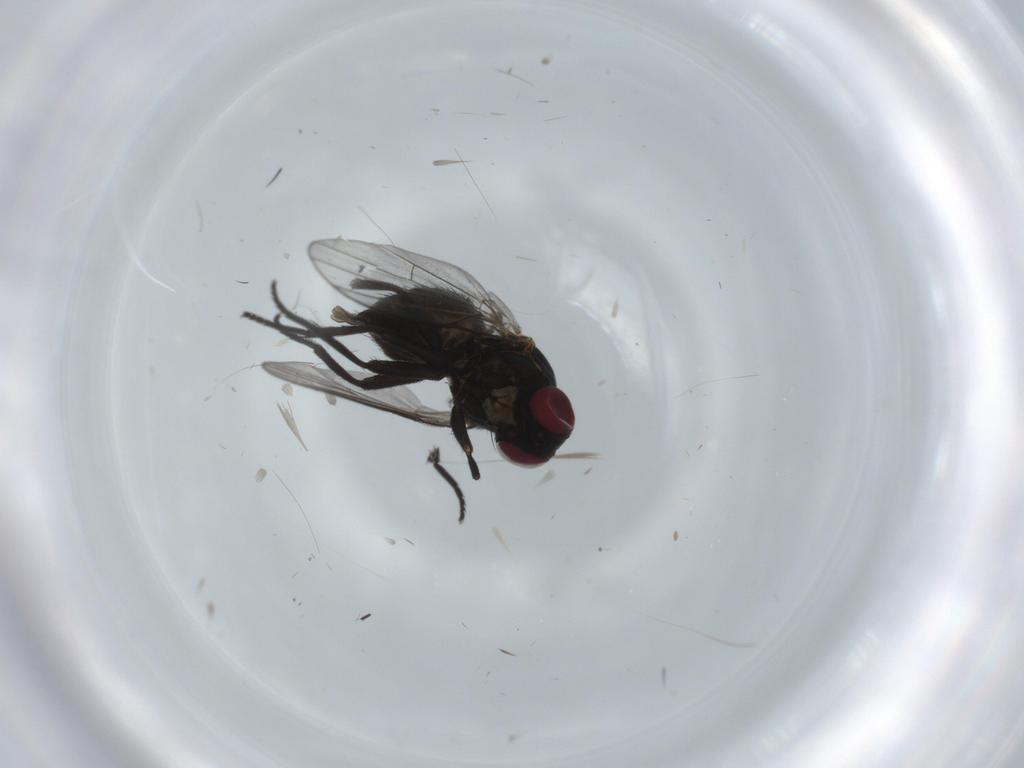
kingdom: Animalia
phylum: Arthropoda
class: Insecta
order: Diptera
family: Agromyzidae
